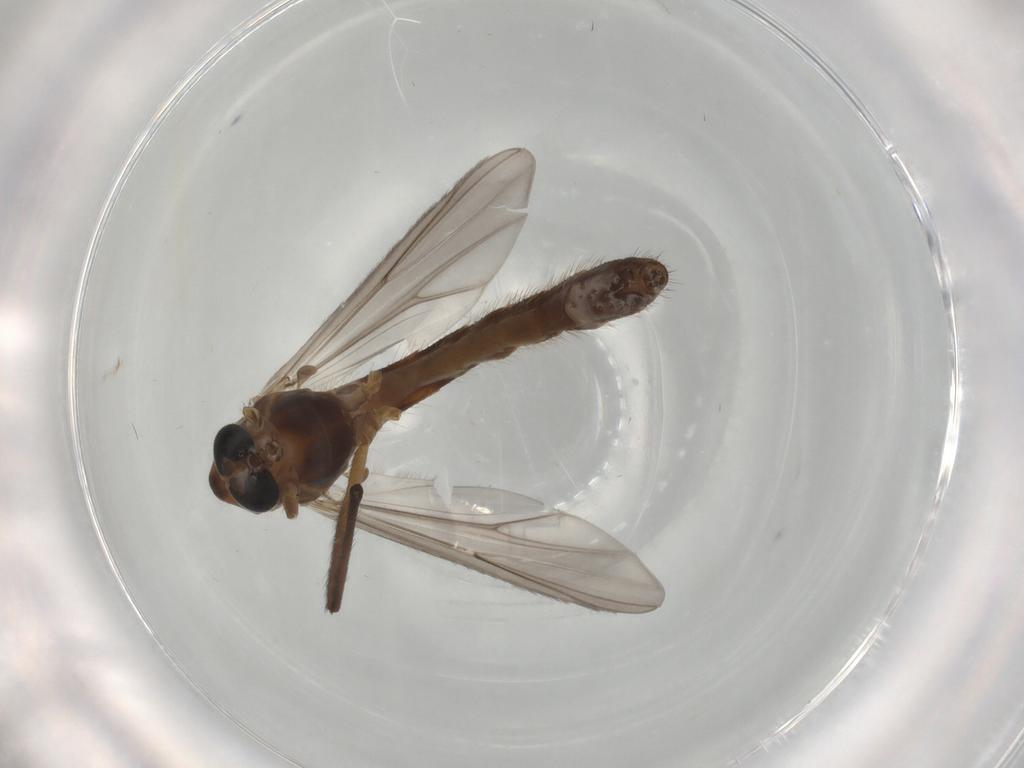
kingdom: Animalia
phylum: Arthropoda
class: Insecta
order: Diptera
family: Chironomidae
